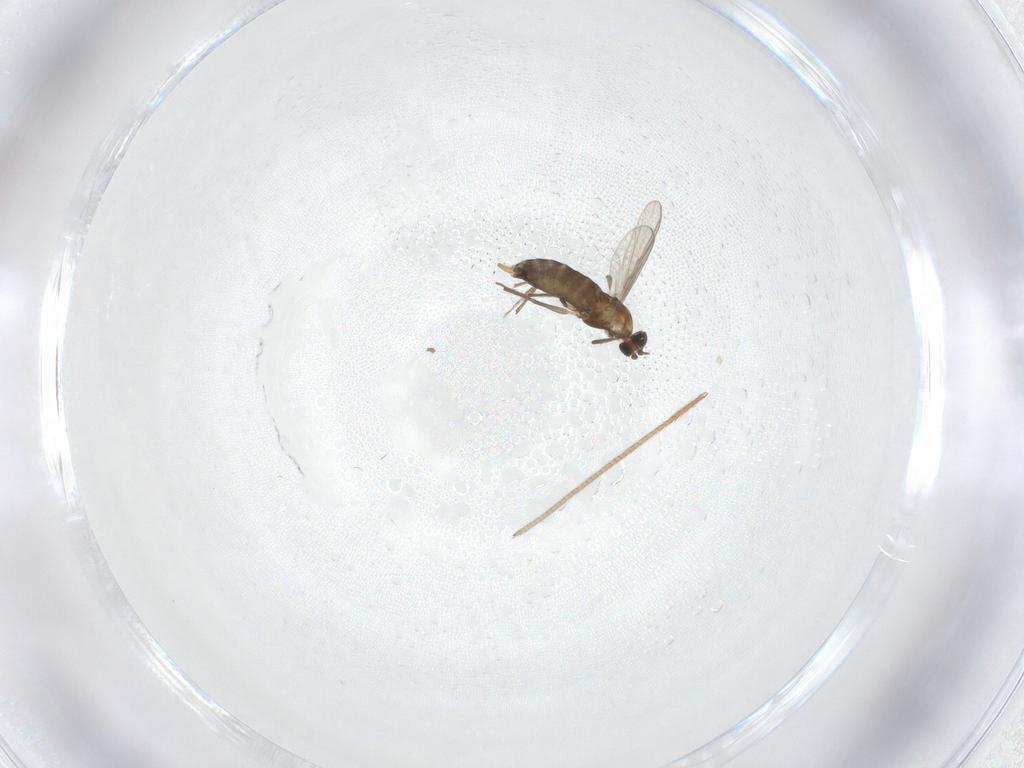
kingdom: Animalia
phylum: Arthropoda
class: Insecta
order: Diptera
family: Chironomidae
